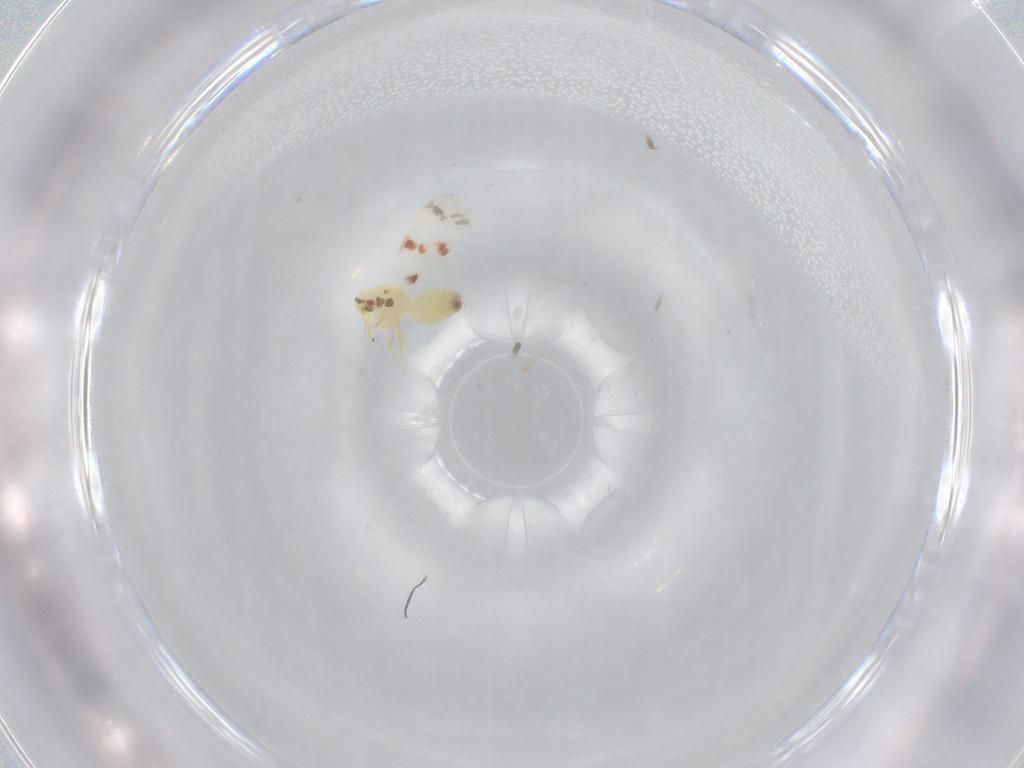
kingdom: Animalia
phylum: Arthropoda
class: Insecta
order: Hemiptera
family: Aleyrodidae
